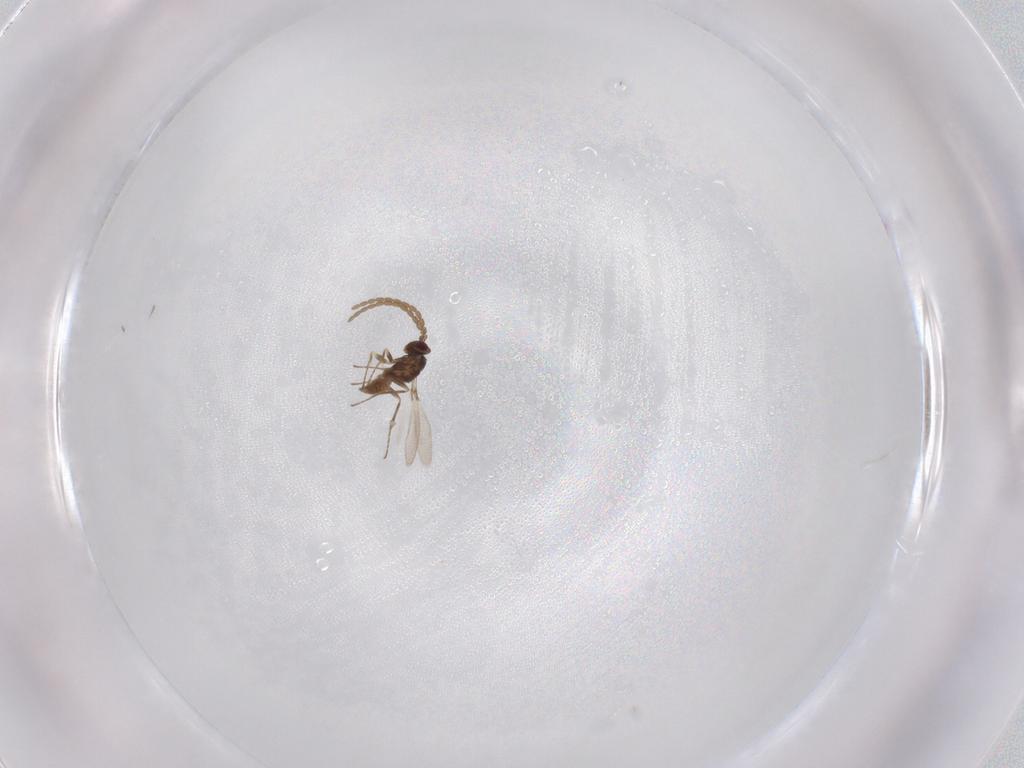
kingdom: Animalia
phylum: Arthropoda
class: Insecta
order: Hymenoptera
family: Mymaridae
